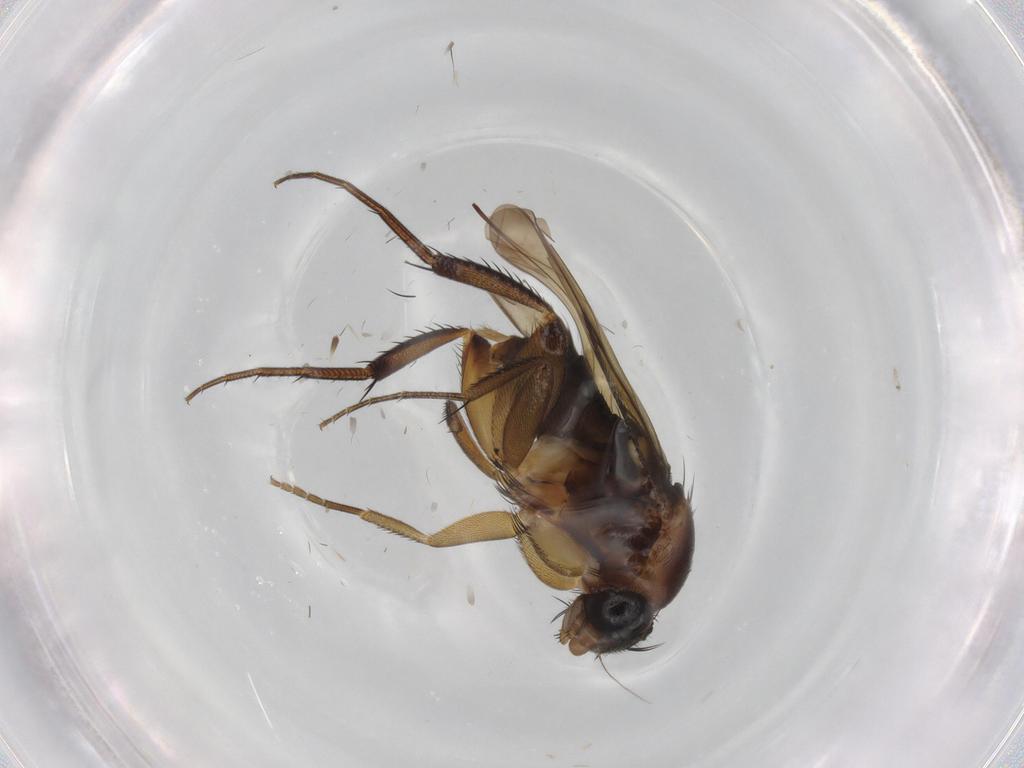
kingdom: Animalia
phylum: Arthropoda
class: Insecta
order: Diptera
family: Phoridae
